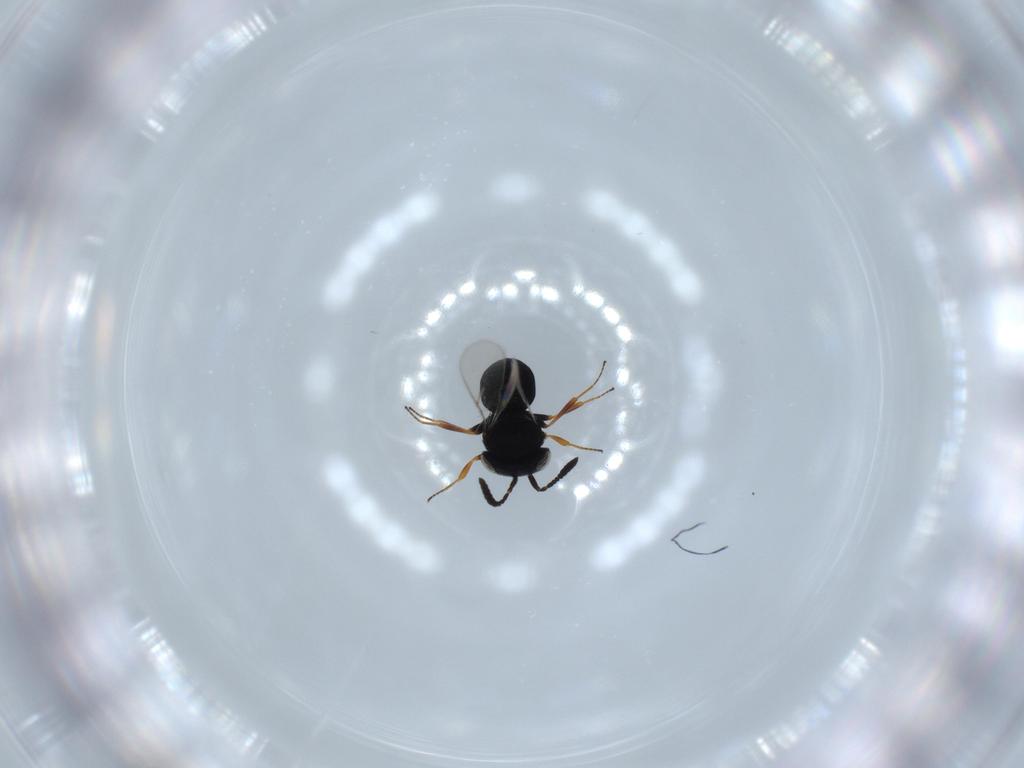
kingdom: Animalia
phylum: Arthropoda
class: Insecta
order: Hymenoptera
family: Scelionidae
